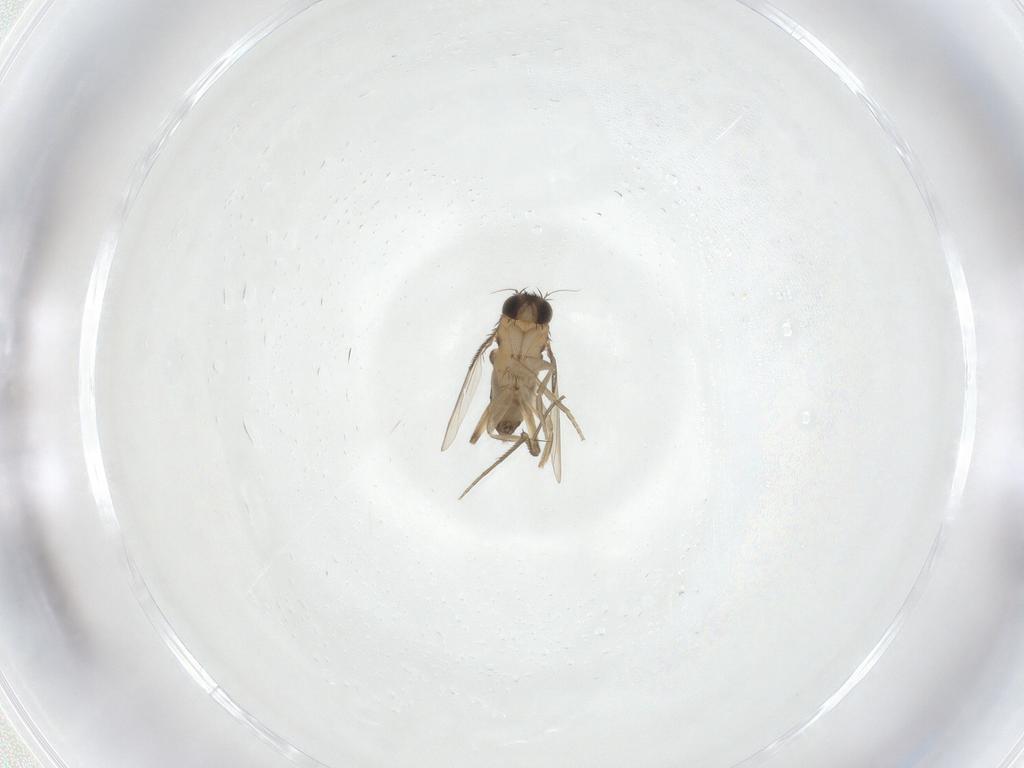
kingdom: Animalia
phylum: Arthropoda
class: Insecta
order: Diptera
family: Phoridae
